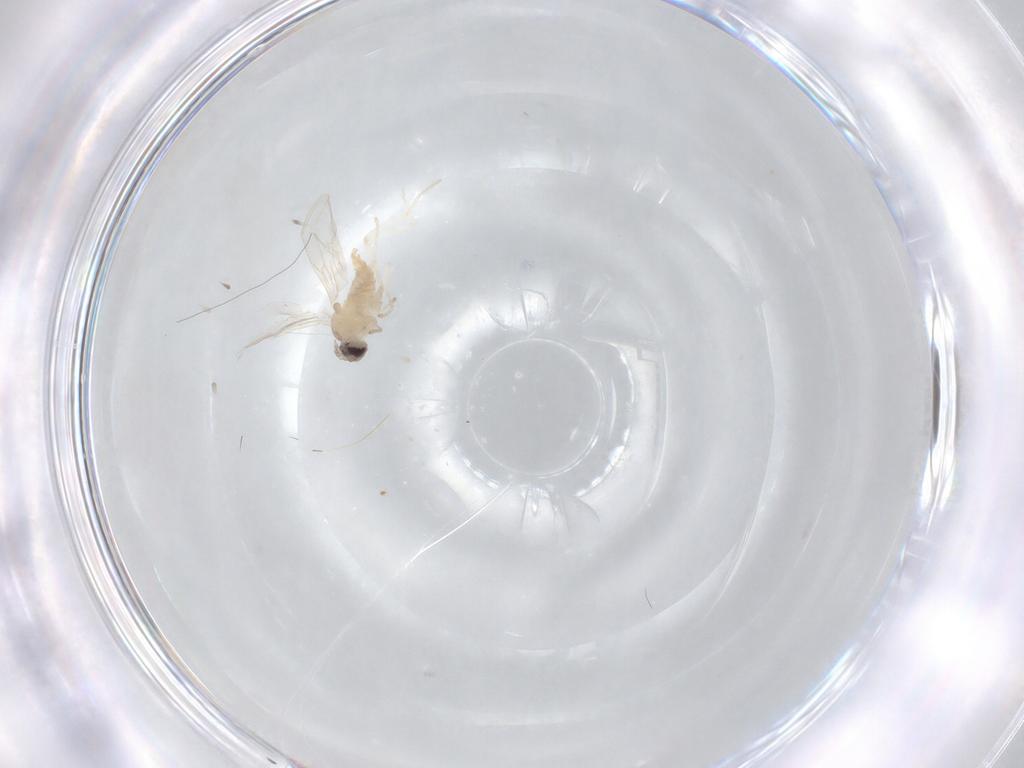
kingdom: Animalia
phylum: Arthropoda
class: Insecta
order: Diptera
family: Cecidomyiidae
